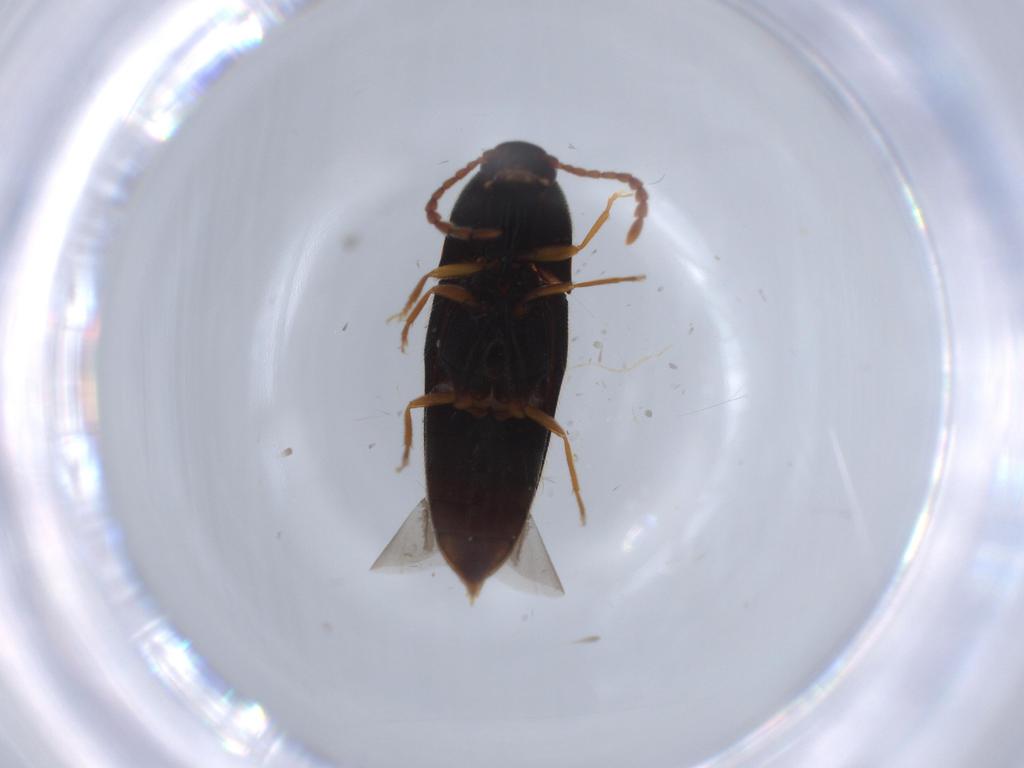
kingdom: Animalia
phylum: Arthropoda
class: Insecta
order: Coleoptera
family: Elateridae
